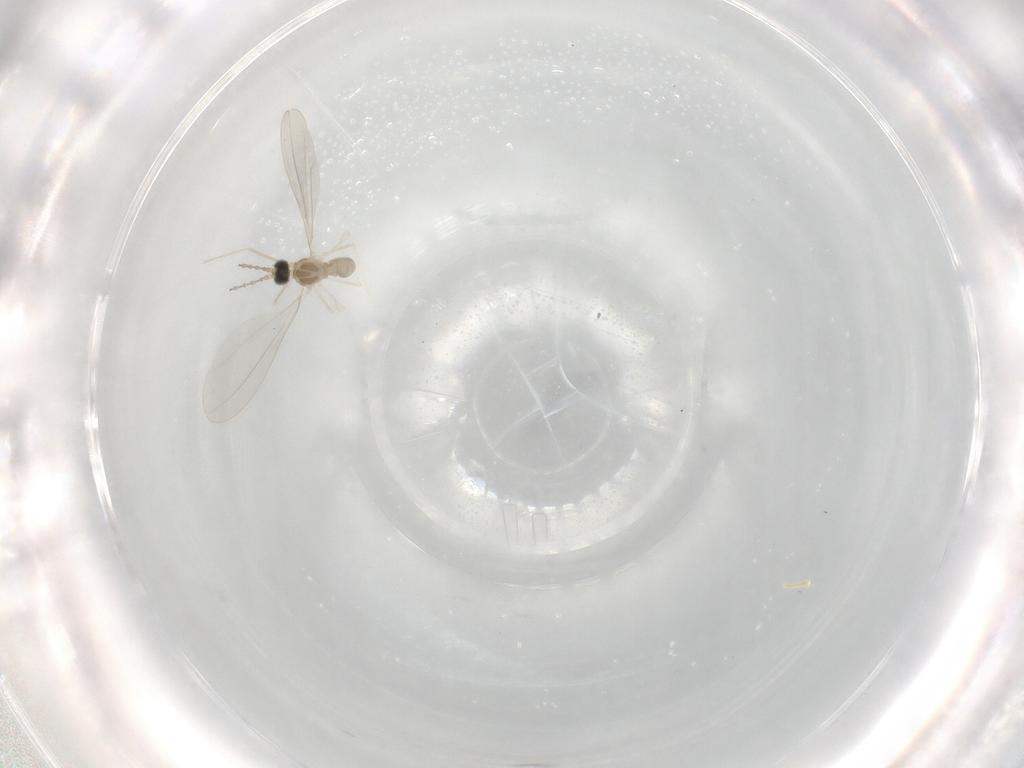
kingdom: Animalia
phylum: Arthropoda
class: Insecta
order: Diptera
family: Cecidomyiidae
